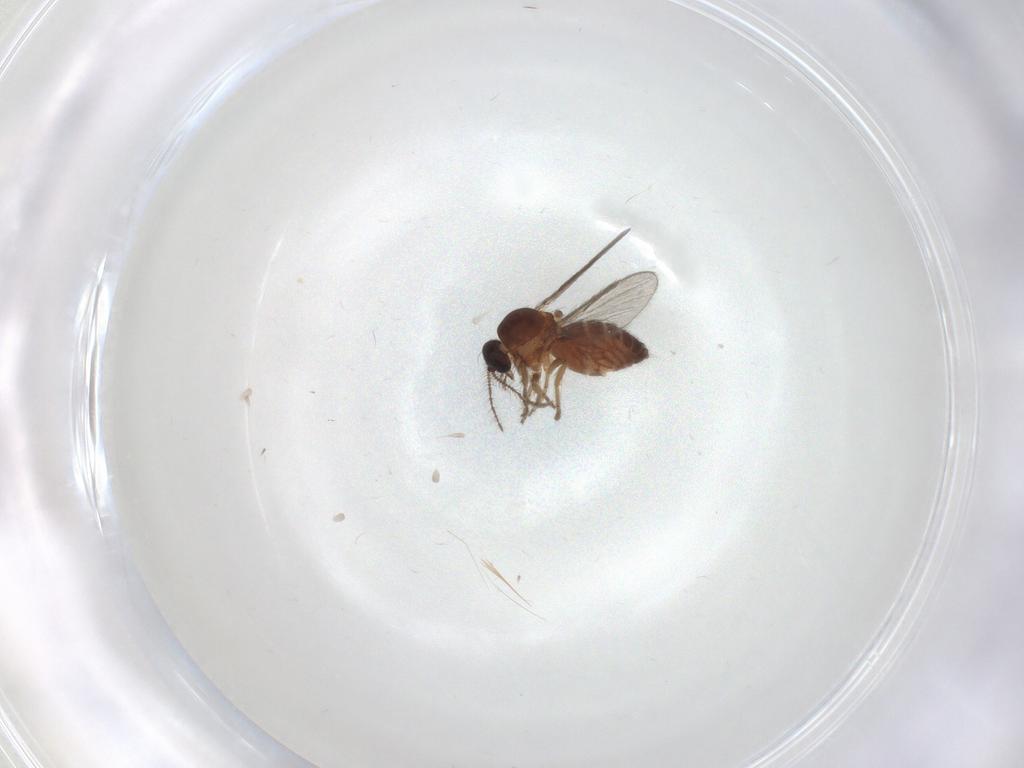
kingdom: Animalia
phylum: Arthropoda
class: Insecta
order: Diptera
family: Ceratopogonidae
